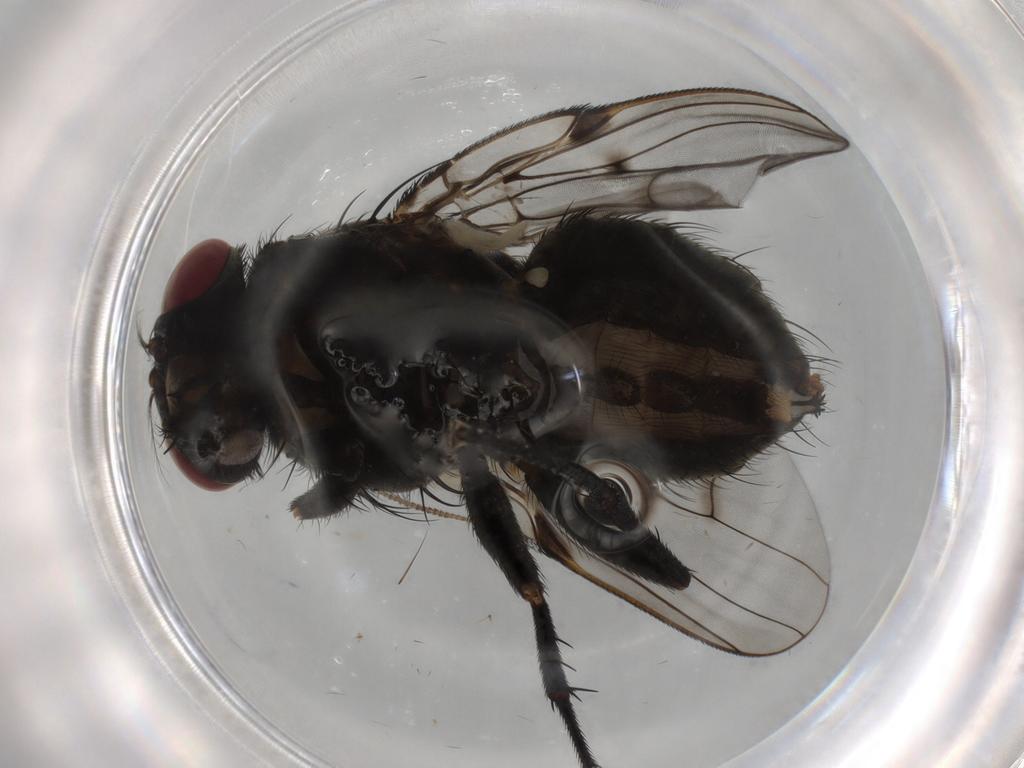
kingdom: Animalia
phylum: Arthropoda
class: Insecta
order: Diptera
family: Muscidae
